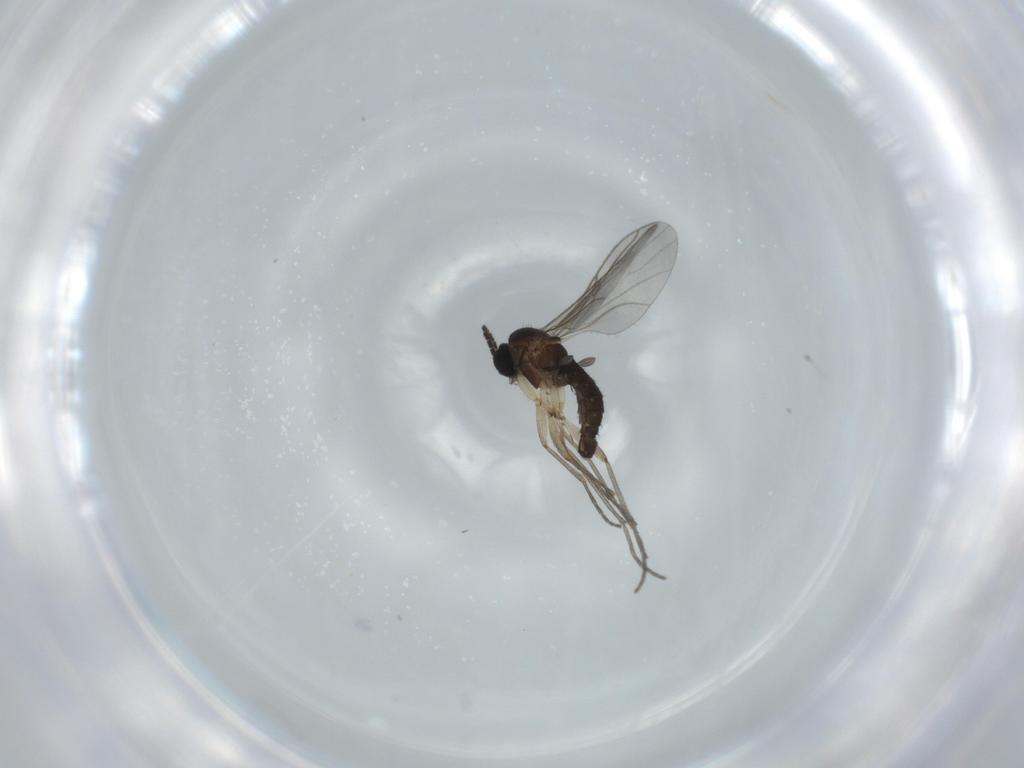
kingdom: Animalia
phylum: Arthropoda
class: Insecta
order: Diptera
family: Sciaridae
